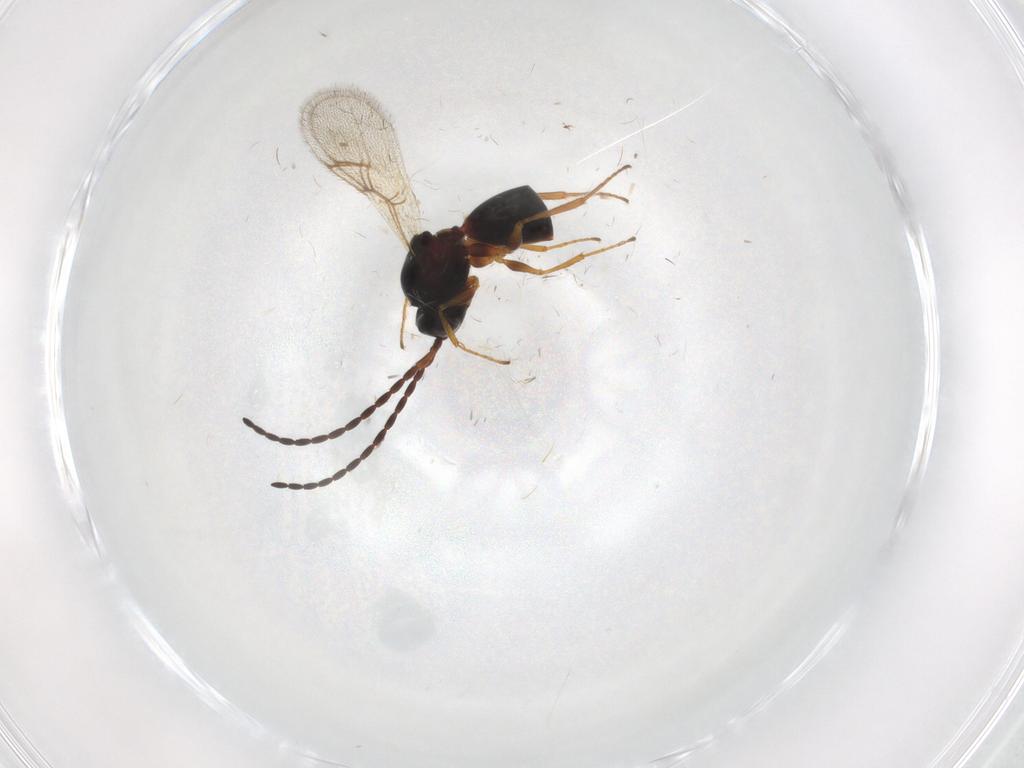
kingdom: Animalia
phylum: Arthropoda
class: Insecta
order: Hymenoptera
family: Figitidae
